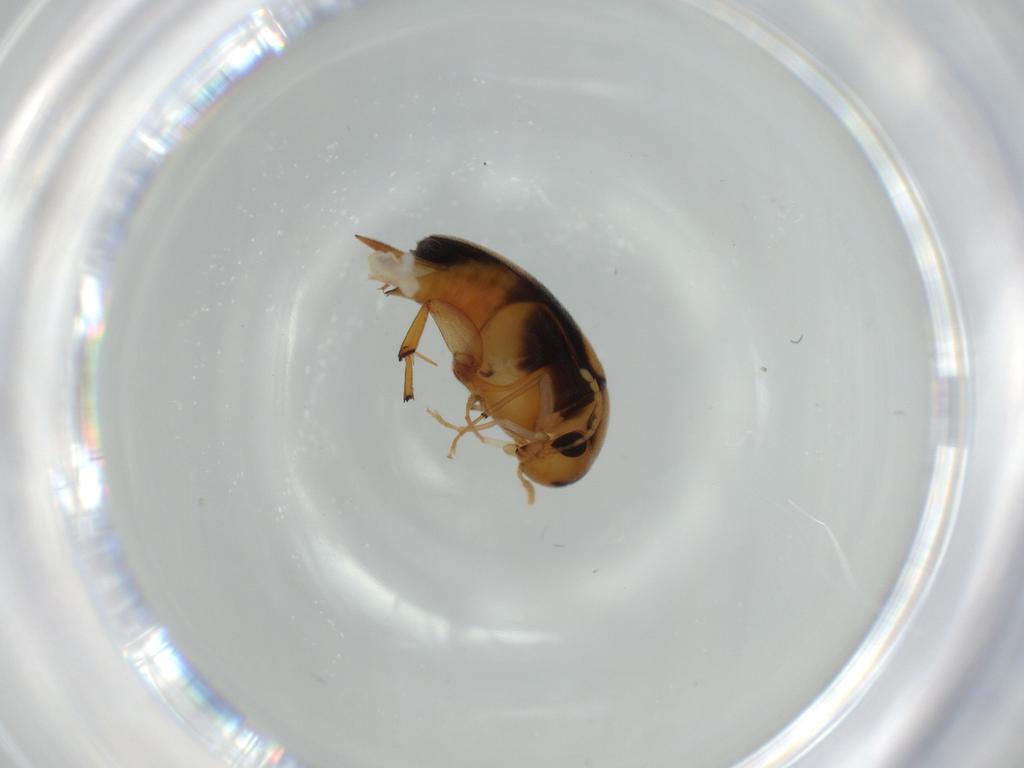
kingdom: Animalia
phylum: Arthropoda
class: Insecta
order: Coleoptera
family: Mordellidae
